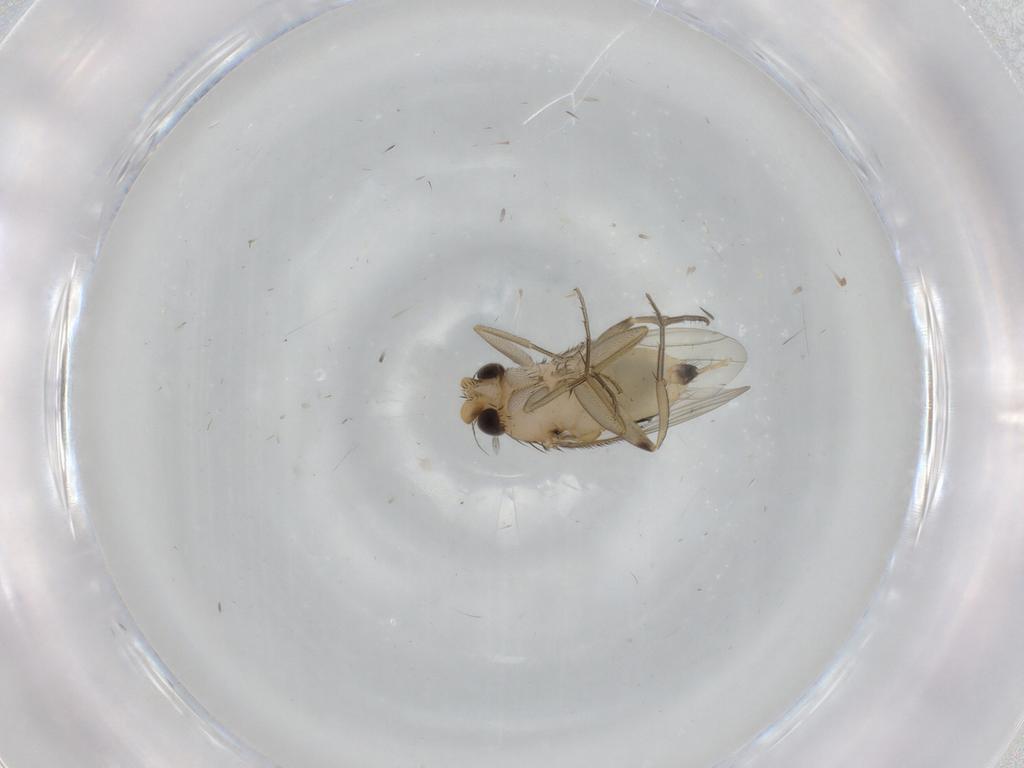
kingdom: Animalia
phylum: Arthropoda
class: Insecta
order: Diptera
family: Phoridae
